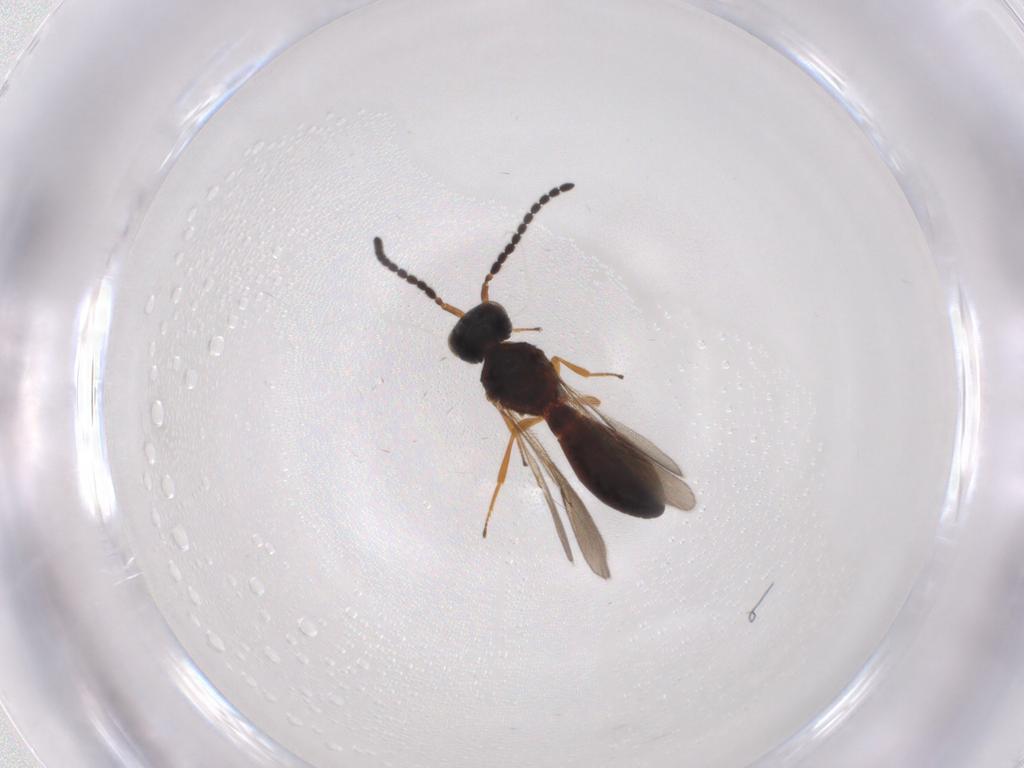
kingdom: Animalia
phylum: Arthropoda
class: Insecta
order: Hymenoptera
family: Scelionidae
